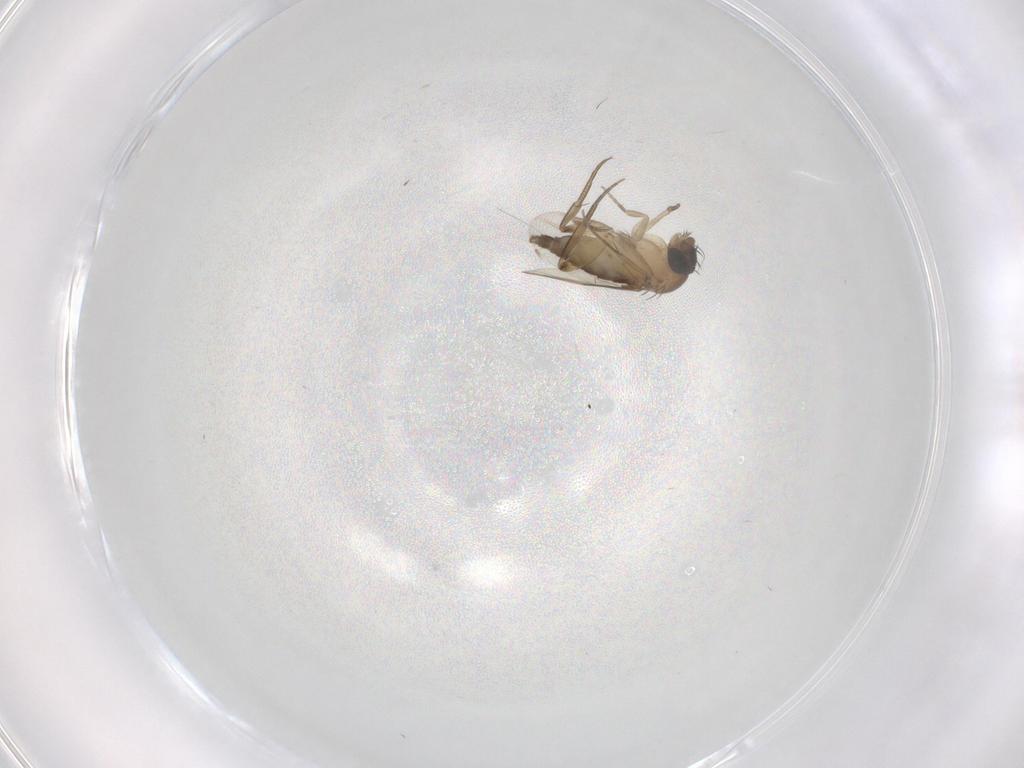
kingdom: Animalia
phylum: Arthropoda
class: Insecta
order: Diptera
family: Phoridae
